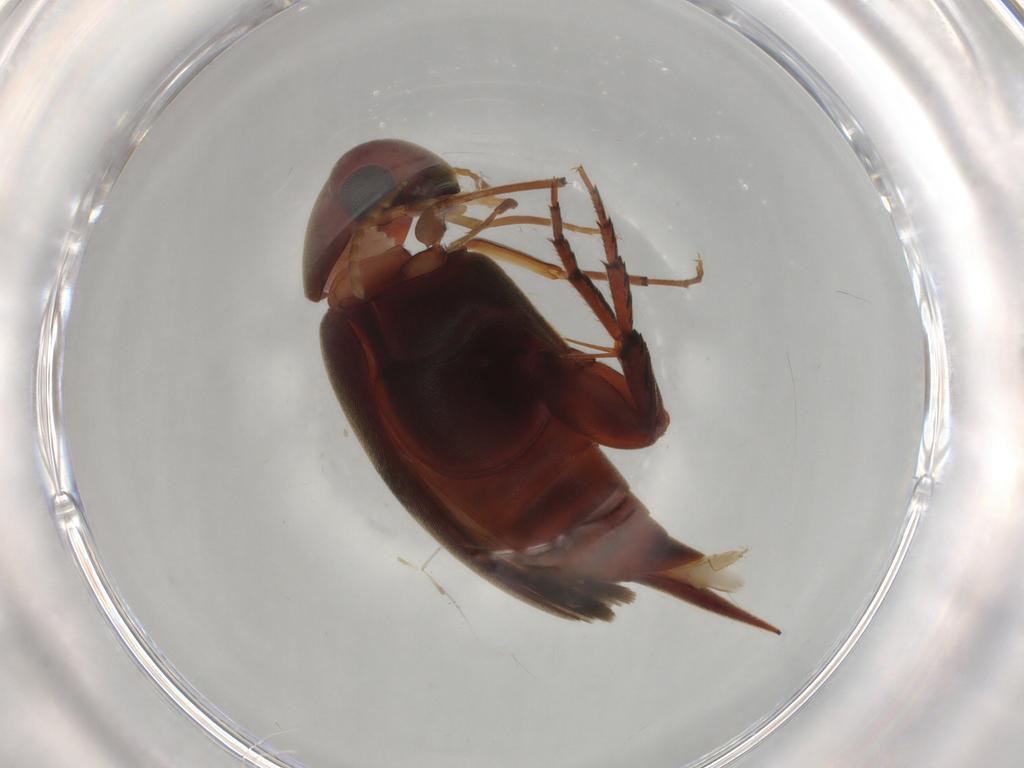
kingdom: Animalia
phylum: Arthropoda
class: Insecta
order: Coleoptera
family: Mordellidae
